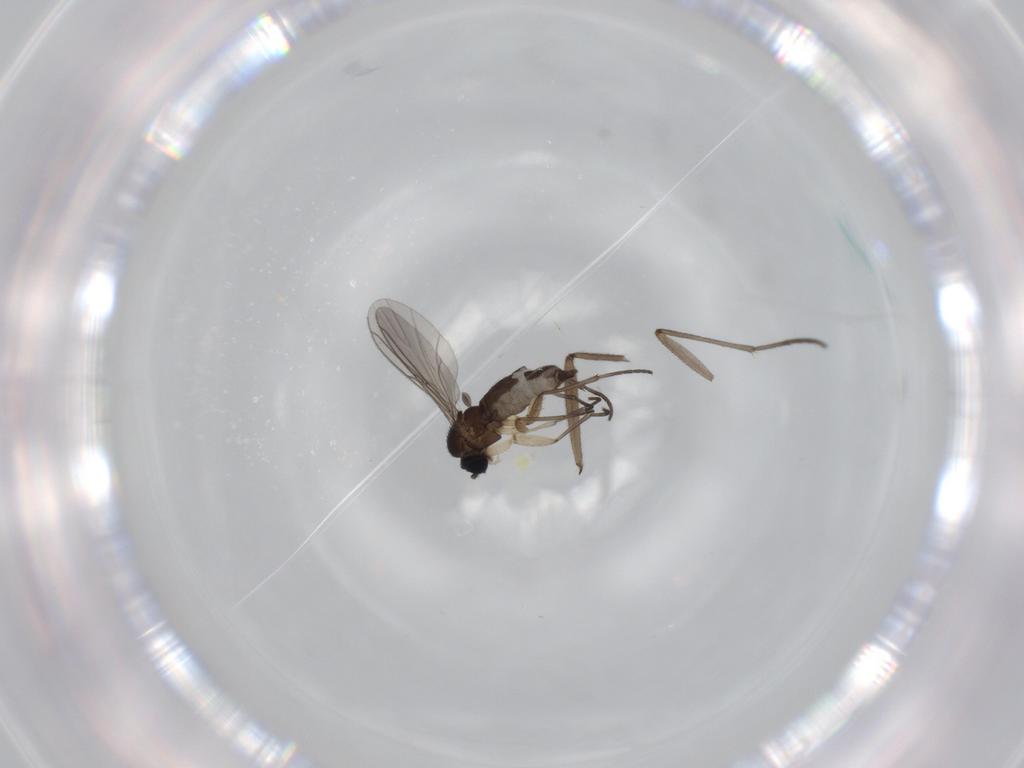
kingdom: Animalia
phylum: Arthropoda
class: Insecta
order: Diptera
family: Sciaridae
